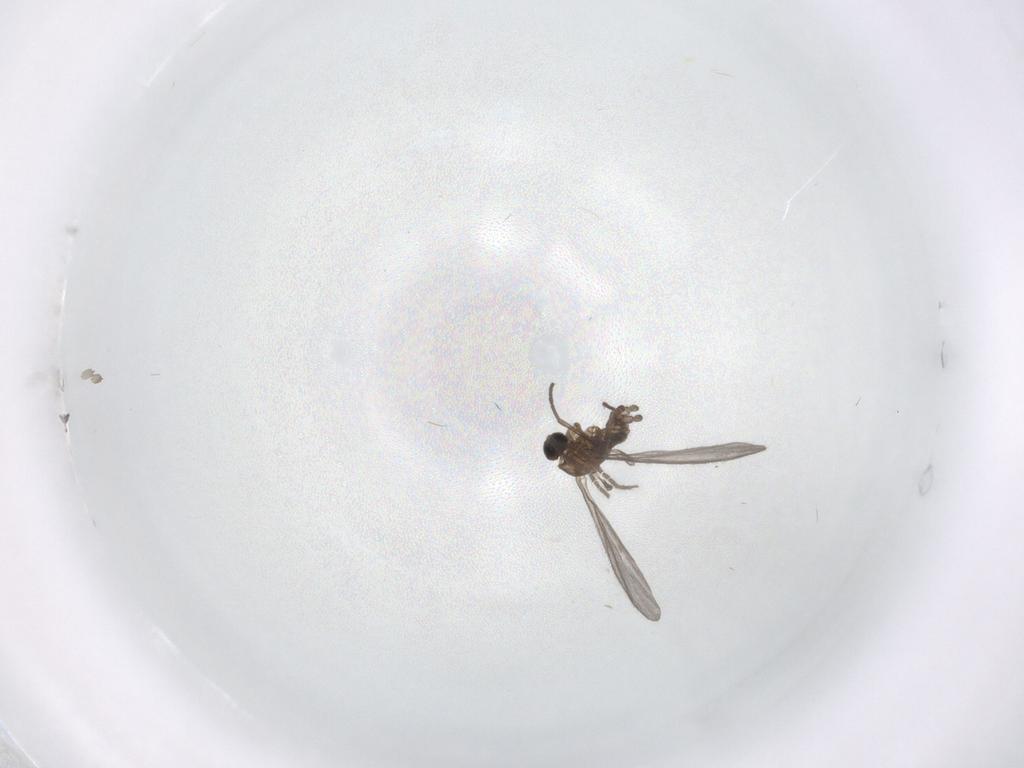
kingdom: Animalia
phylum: Arthropoda
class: Insecta
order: Diptera
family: Sciaridae
